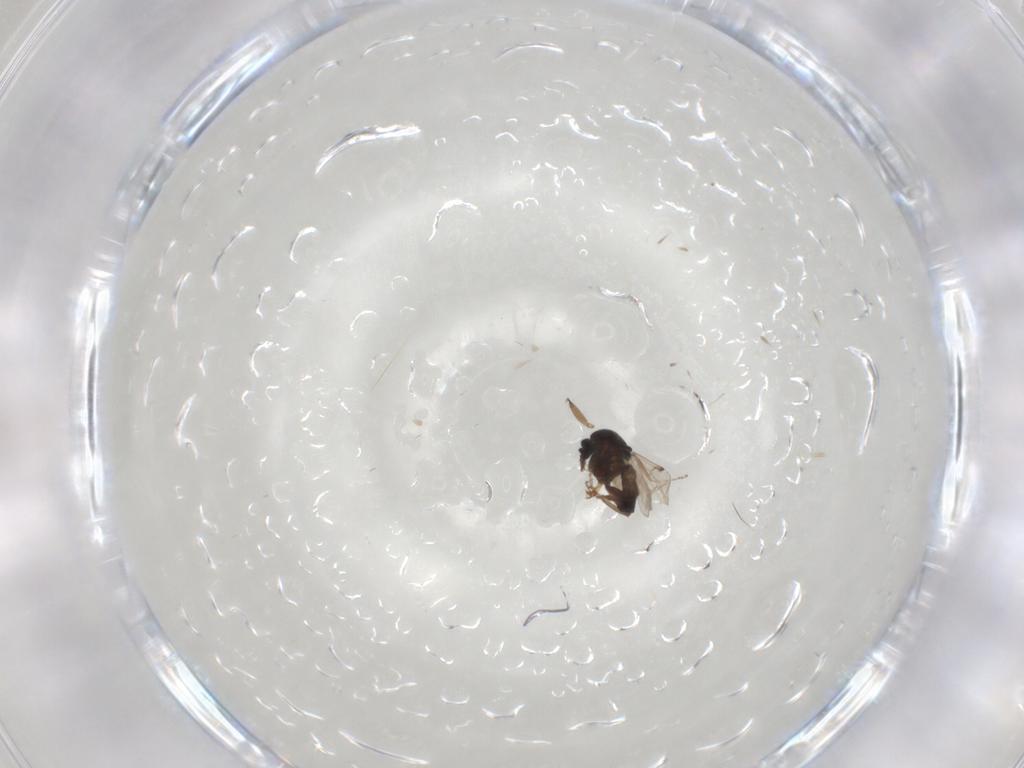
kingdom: Animalia
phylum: Arthropoda
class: Insecta
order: Diptera
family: Ceratopogonidae
